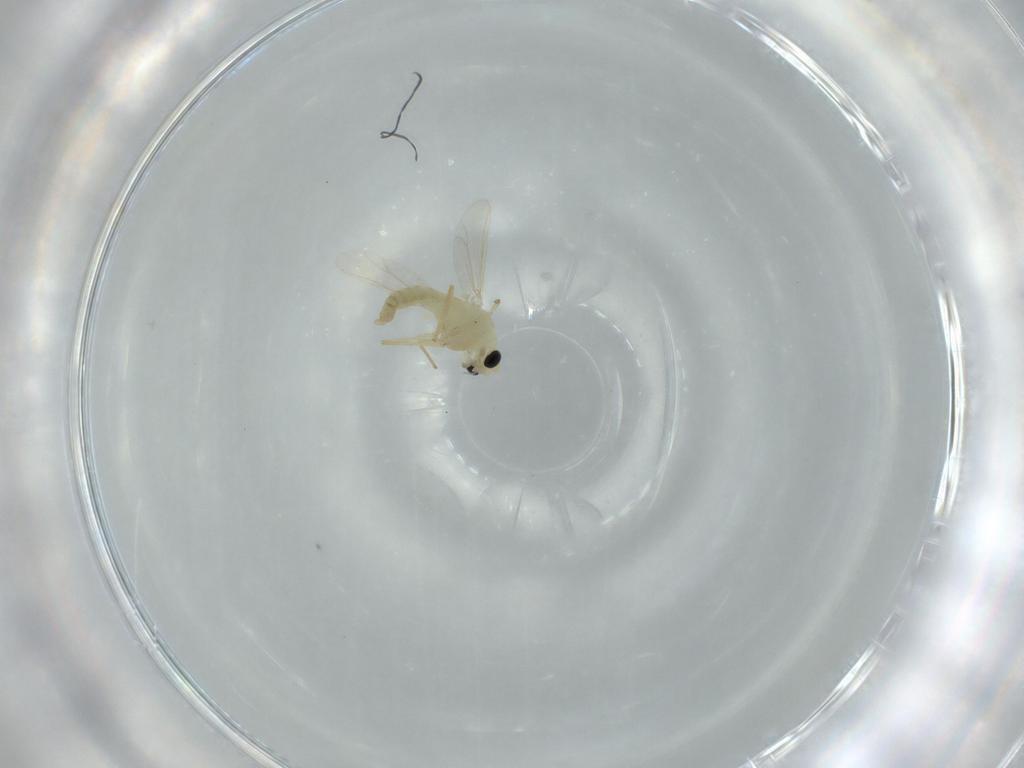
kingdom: Animalia
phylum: Arthropoda
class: Insecta
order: Diptera
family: Chironomidae
